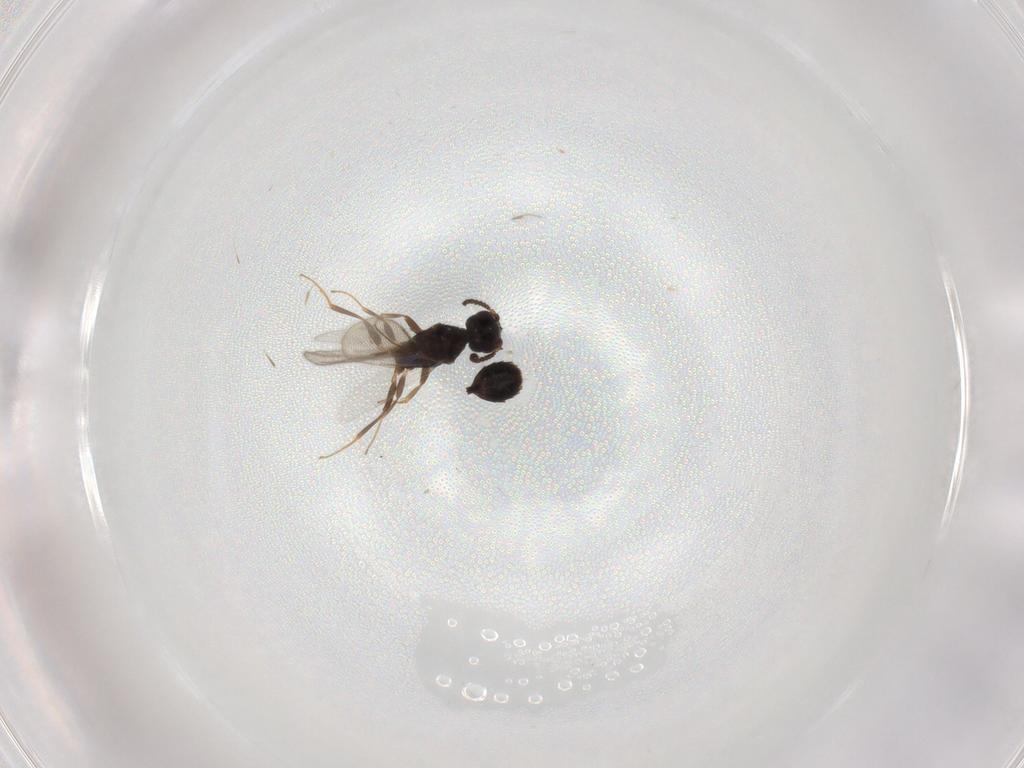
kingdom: Animalia
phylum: Arthropoda
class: Insecta
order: Hymenoptera
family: Bethylidae
